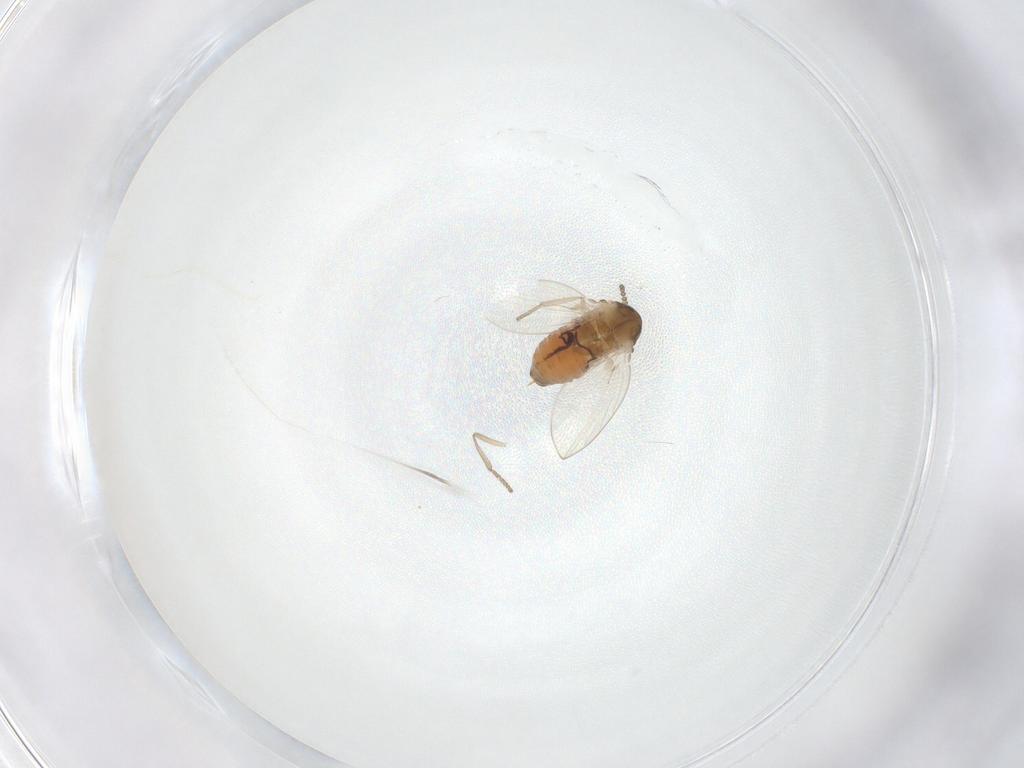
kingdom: Animalia
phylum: Arthropoda
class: Insecta
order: Diptera
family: Psychodidae
